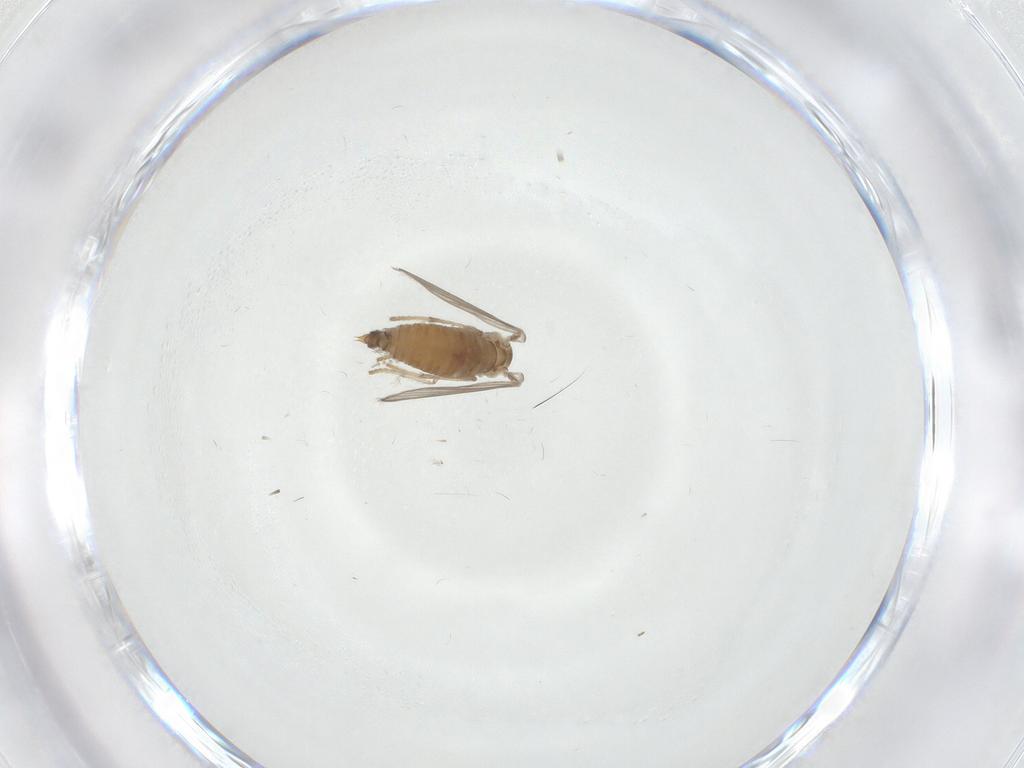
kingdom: Animalia
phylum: Arthropoda
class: Insecta
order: Diptera
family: Psychodidae
